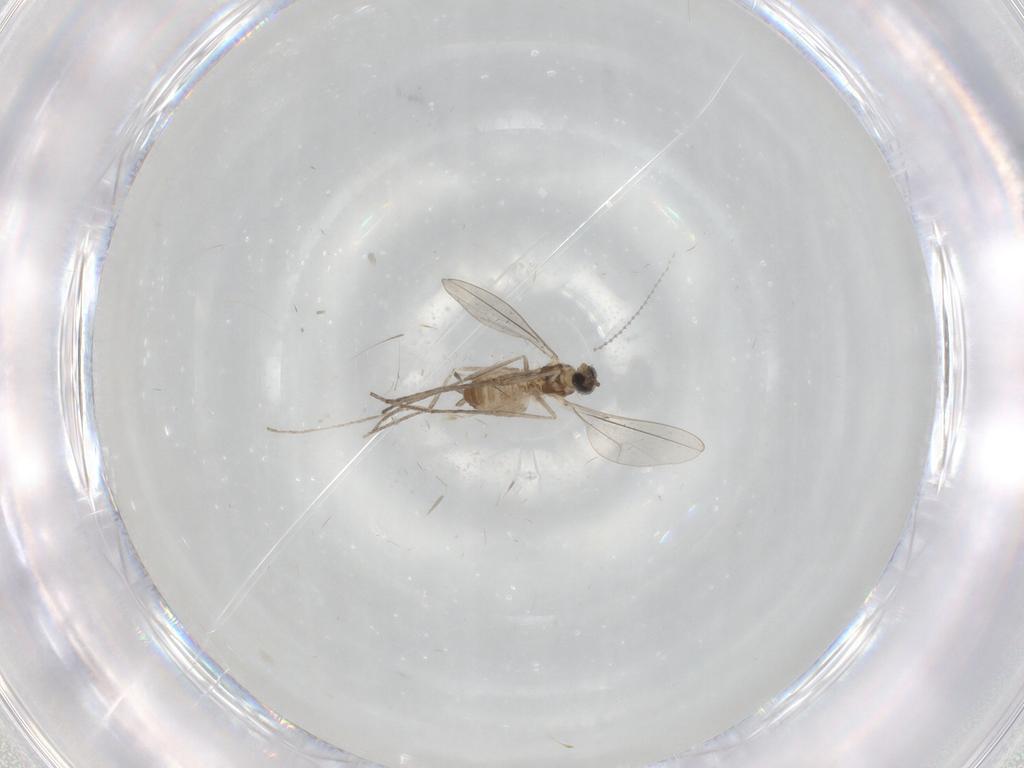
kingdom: Animalia
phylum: Arthropoda
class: Insecta
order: Diptera
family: Cecidomyiidae
